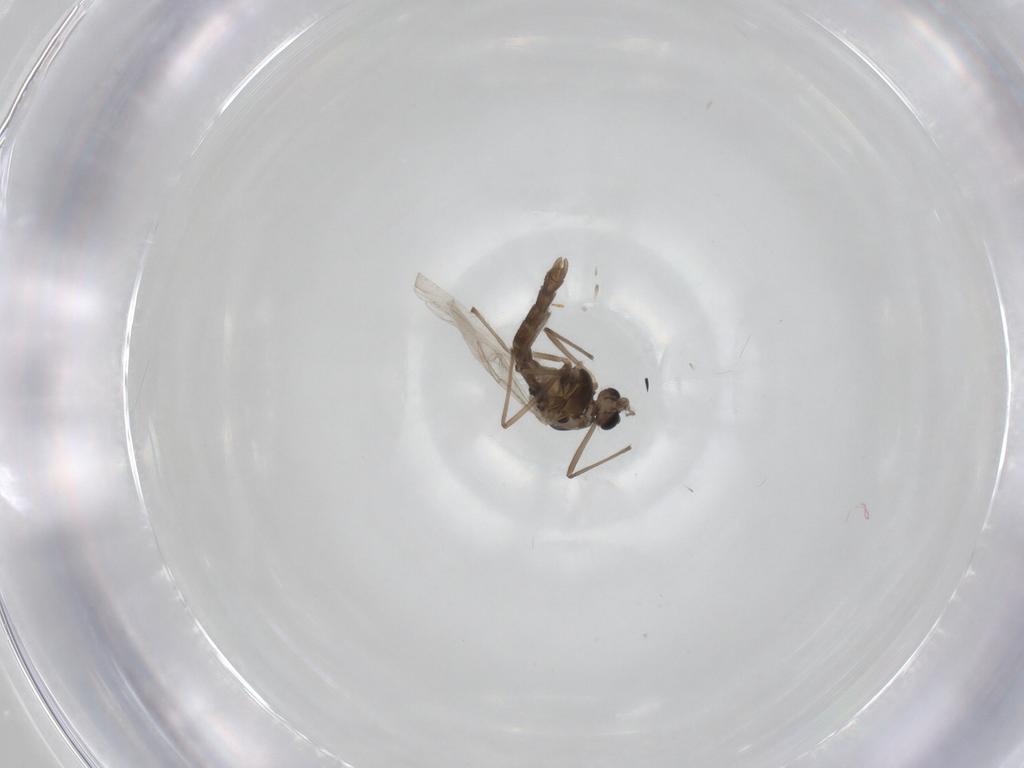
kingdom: Animalia
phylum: Arthropoda
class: Insecta
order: Diptera
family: Chironomidae
